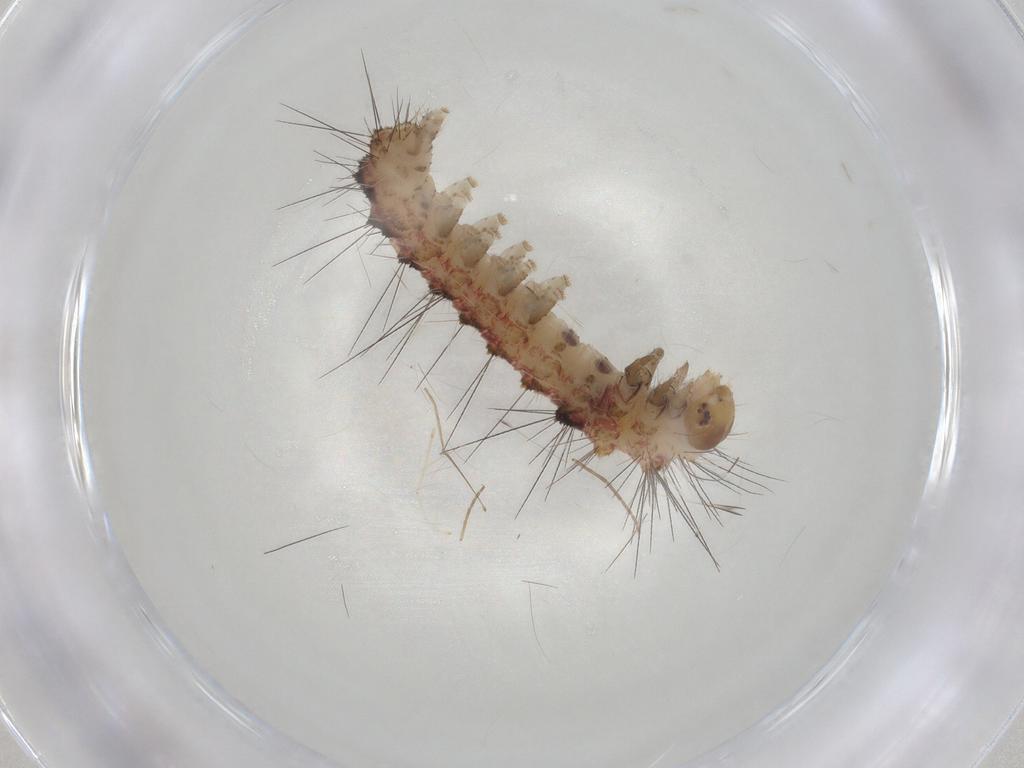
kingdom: Animalia
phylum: Arthropoda
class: Insecta
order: Lepidoptera
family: Erebidae
